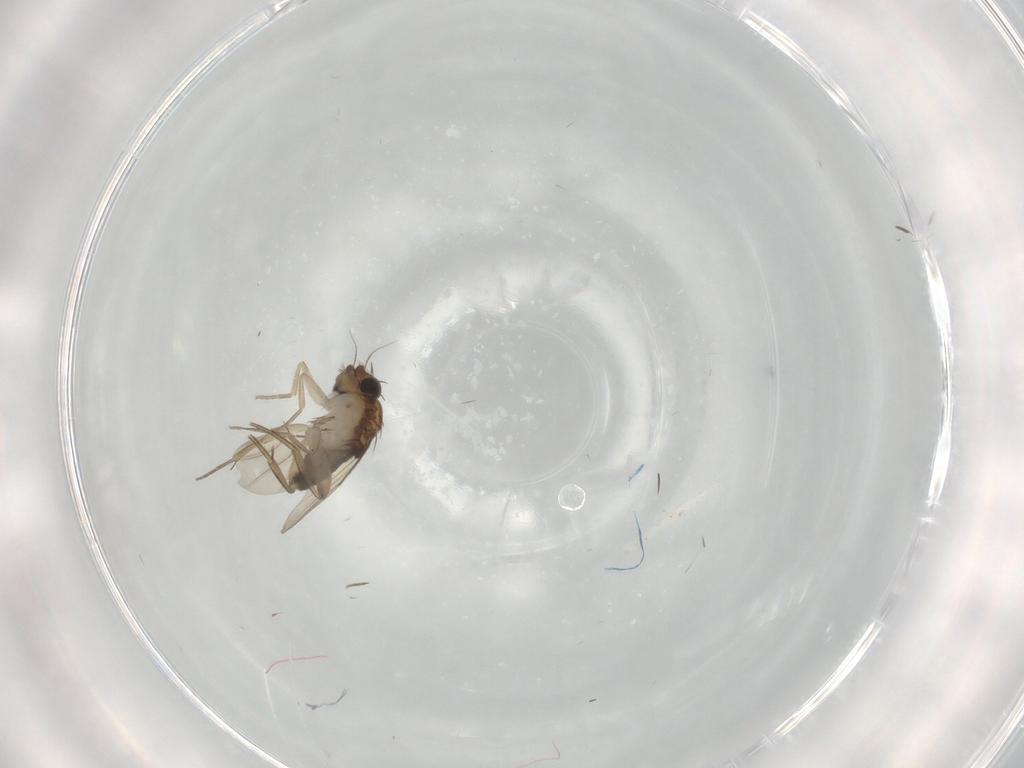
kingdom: Animalia
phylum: Arthropoda
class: Insecta
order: Diptera
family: Phoridae
